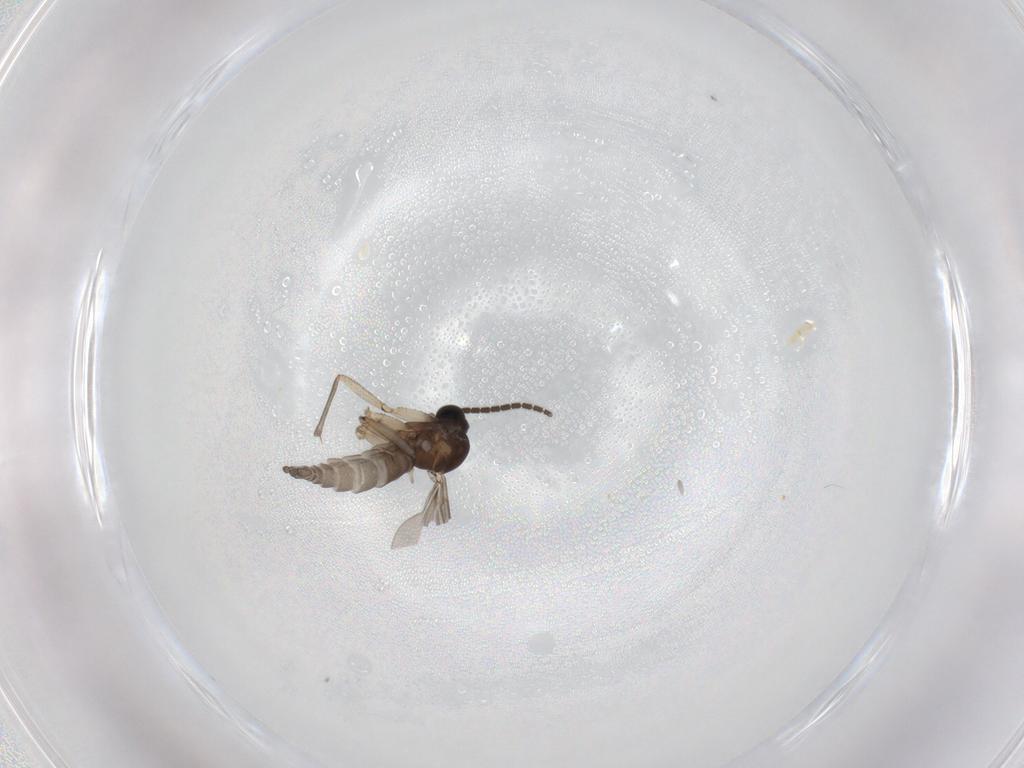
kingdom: Animalia
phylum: Arthropoda
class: Insecta
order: Diptera
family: Sciaridae
